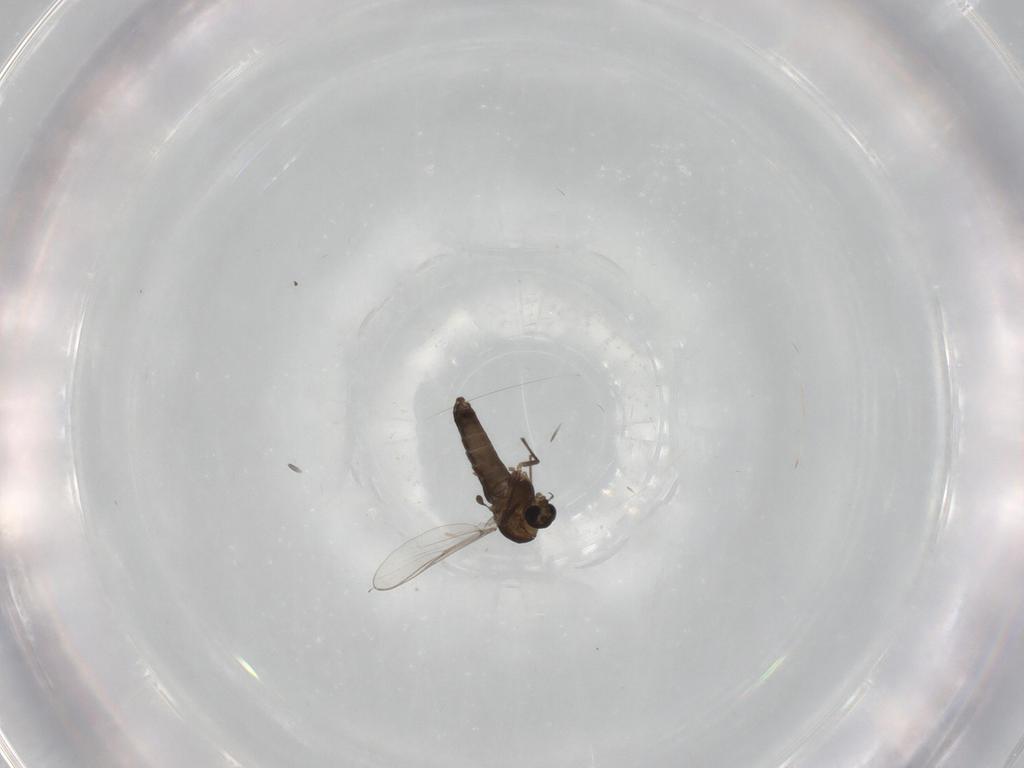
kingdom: Animalia
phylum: Arthropoda
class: Insecta
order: Diptera
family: Chironomidae
